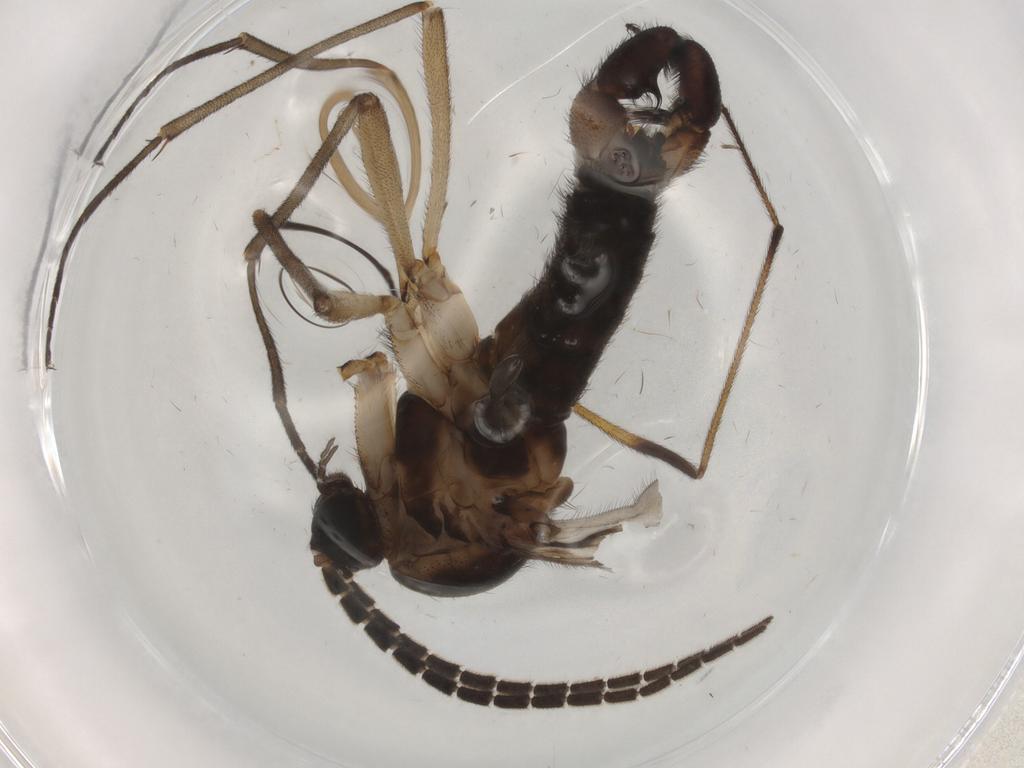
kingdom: Animalia
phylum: Arthropoda
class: Insecta
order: Diptera
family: Sciaridae
